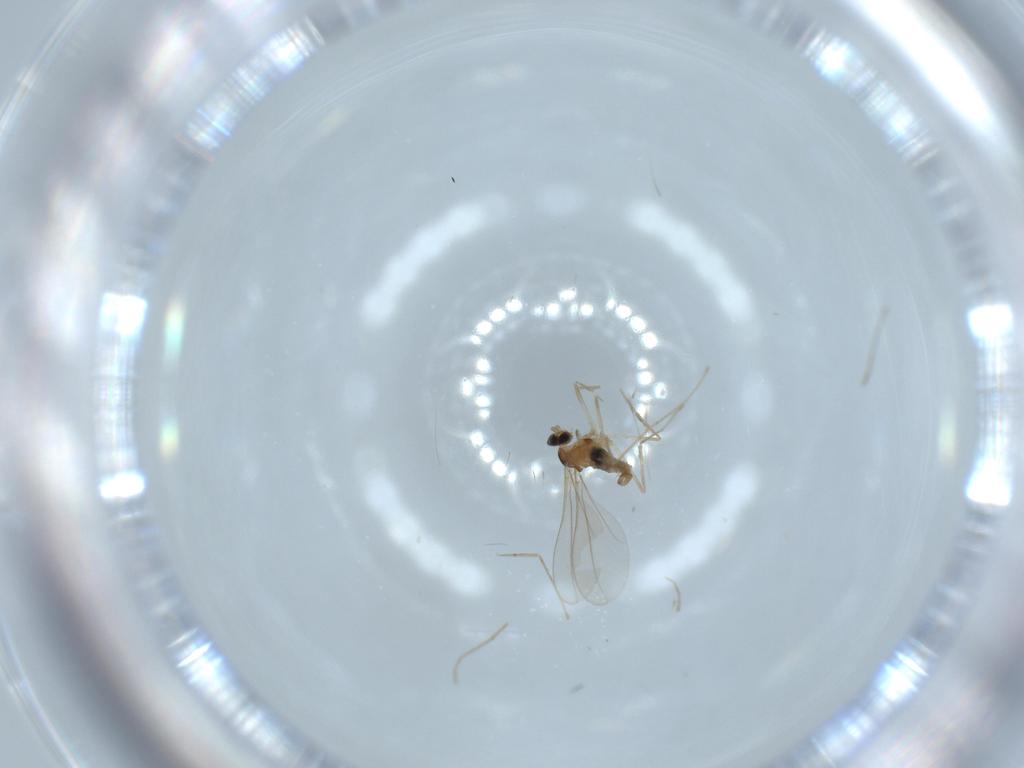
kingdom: Animalia
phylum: Arthropoda
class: Insecta
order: Diptera
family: Cecidomyiidae
